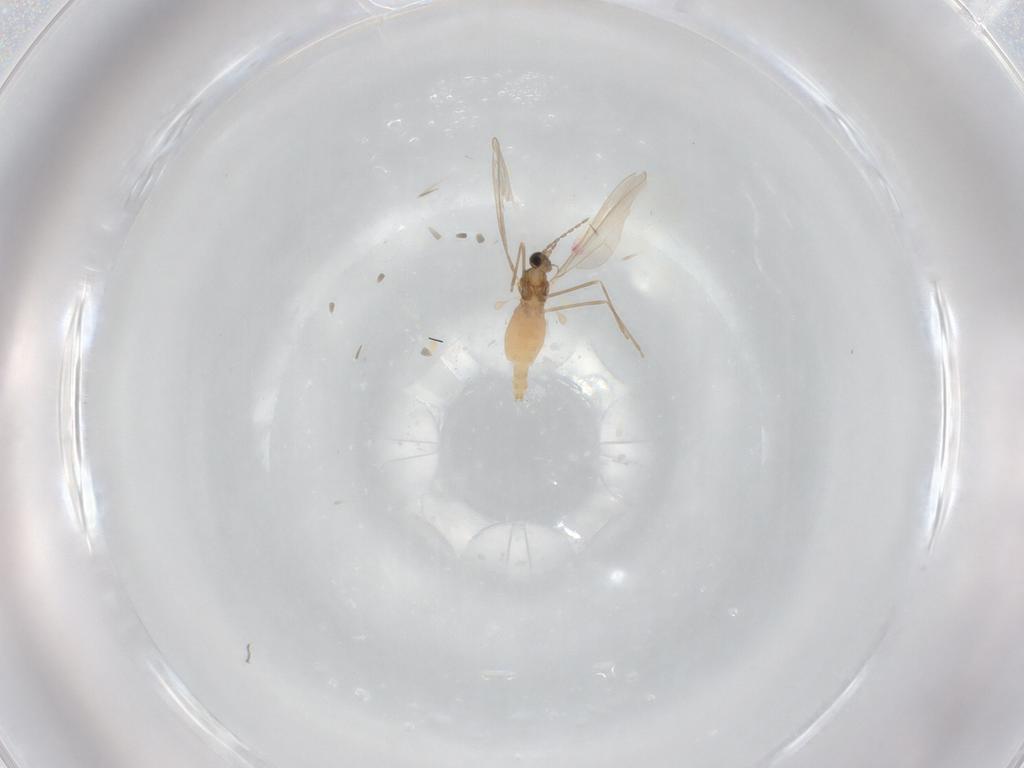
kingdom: Animalia
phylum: Arthropoda
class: Insecta
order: Diptera
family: Cecidomyiidae
